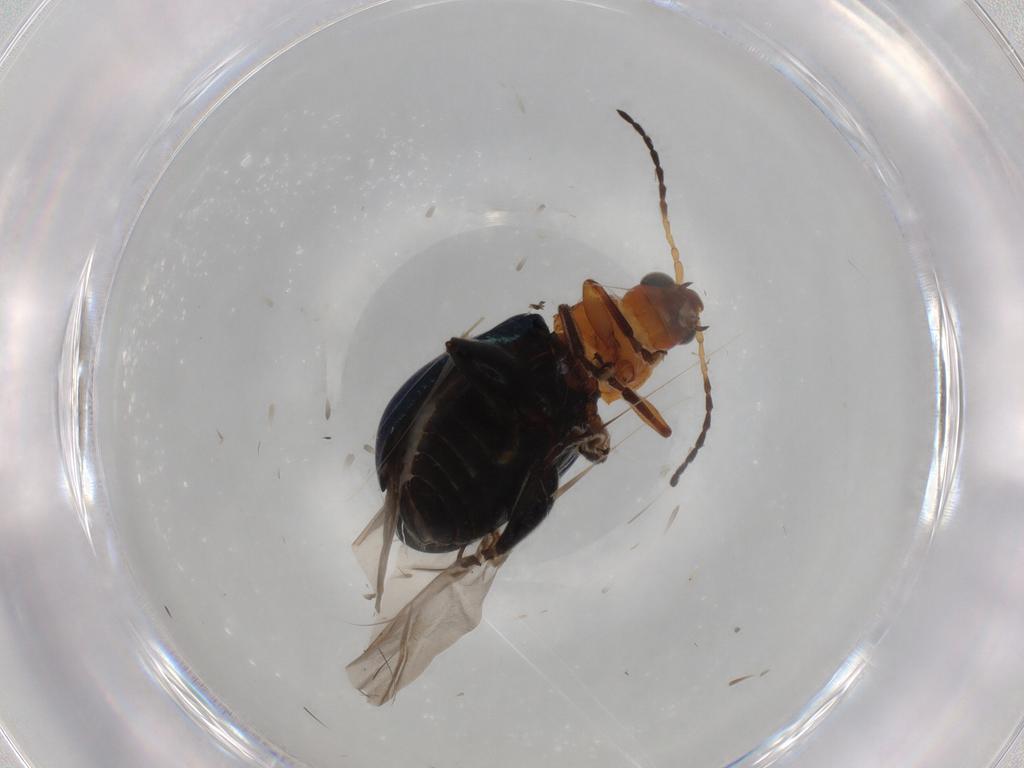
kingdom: Animalia
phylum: Arthropoda
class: Insecta
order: Coleoptera
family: Chrysomelidae
